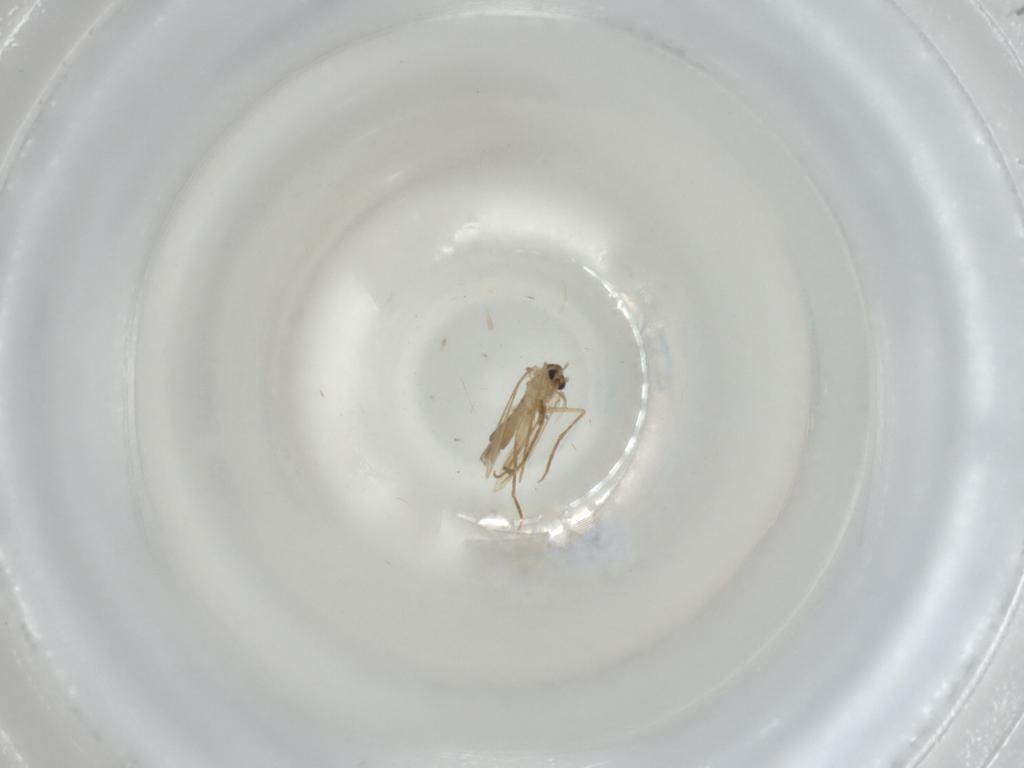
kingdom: Animalia
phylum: Arthropoda
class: Insecta
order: Diptera
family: Psychodidae
